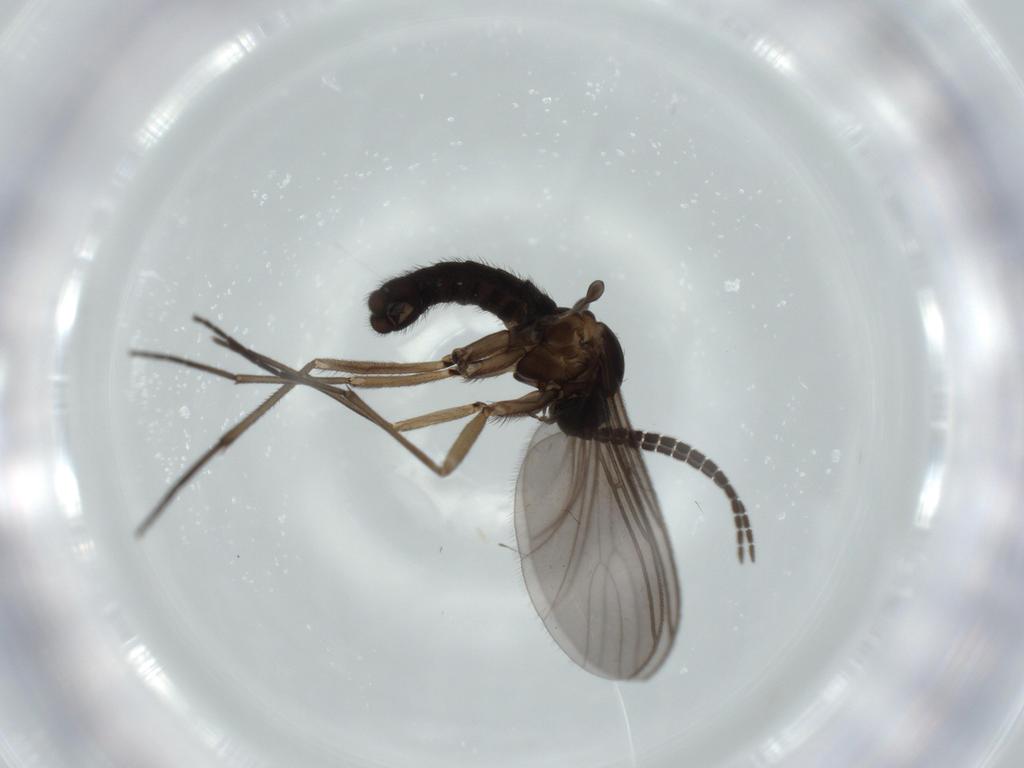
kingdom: Animalia
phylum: Arthropoda
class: Insecta
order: Diptera
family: Sciaridae
